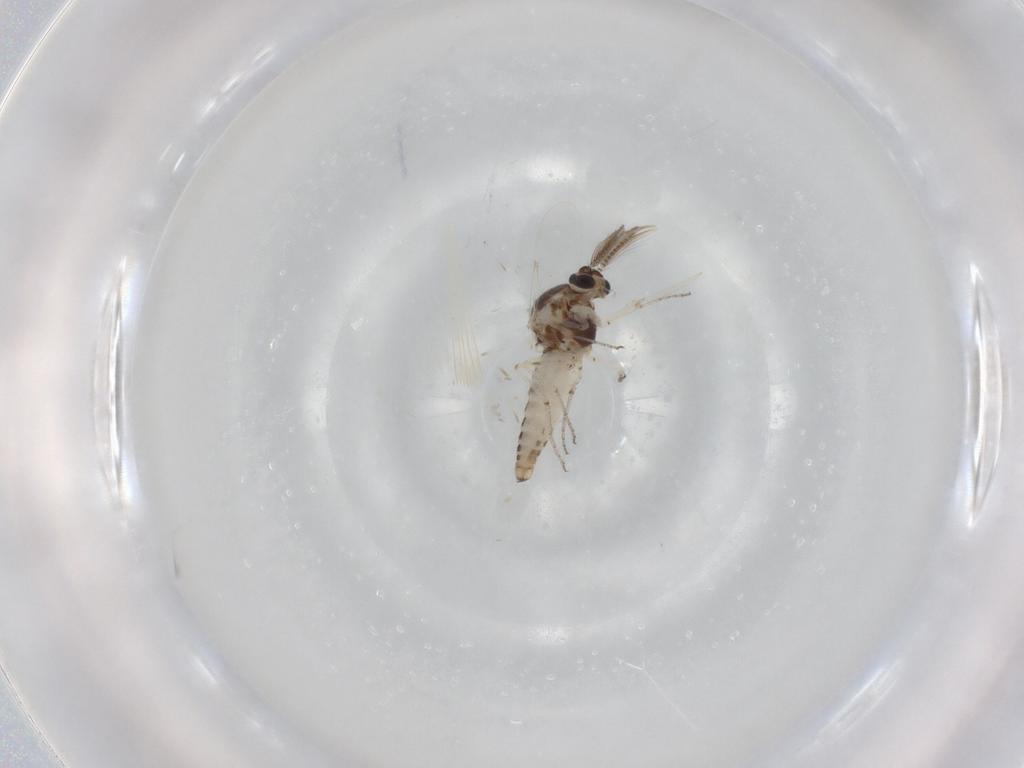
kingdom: Animalia
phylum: Arthropoda
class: Insecta
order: Diptera
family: Ceratopogonidae
